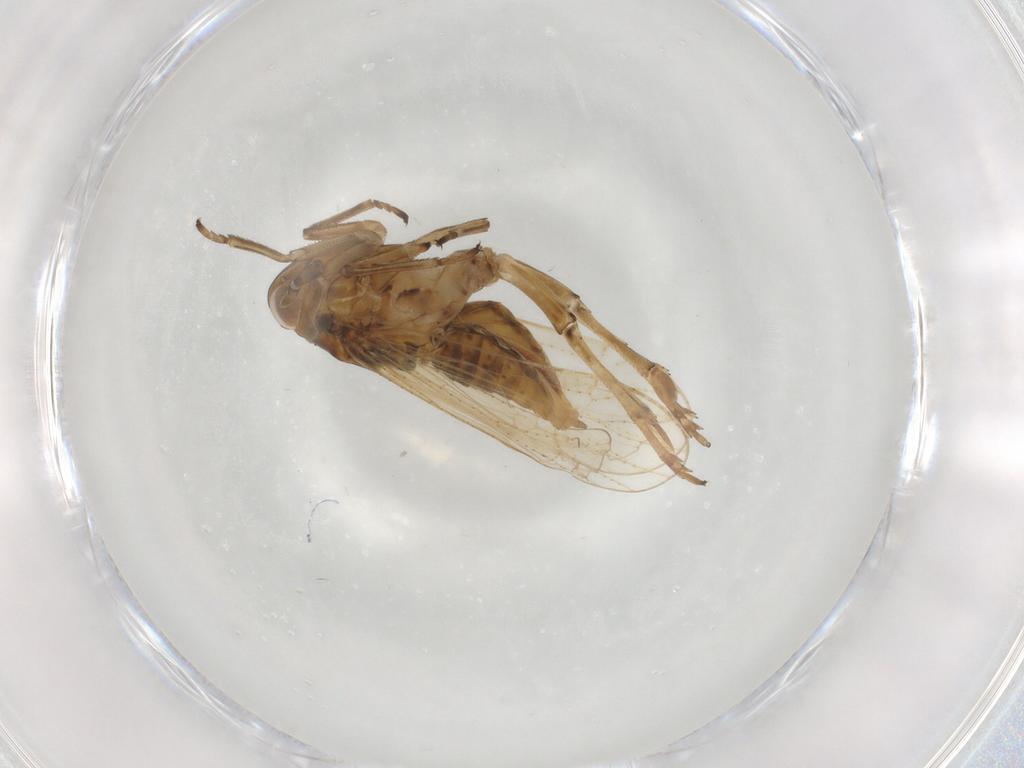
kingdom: Animalia
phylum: Arthropoda
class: Insecta
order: Hemiptera
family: Delphacidae
